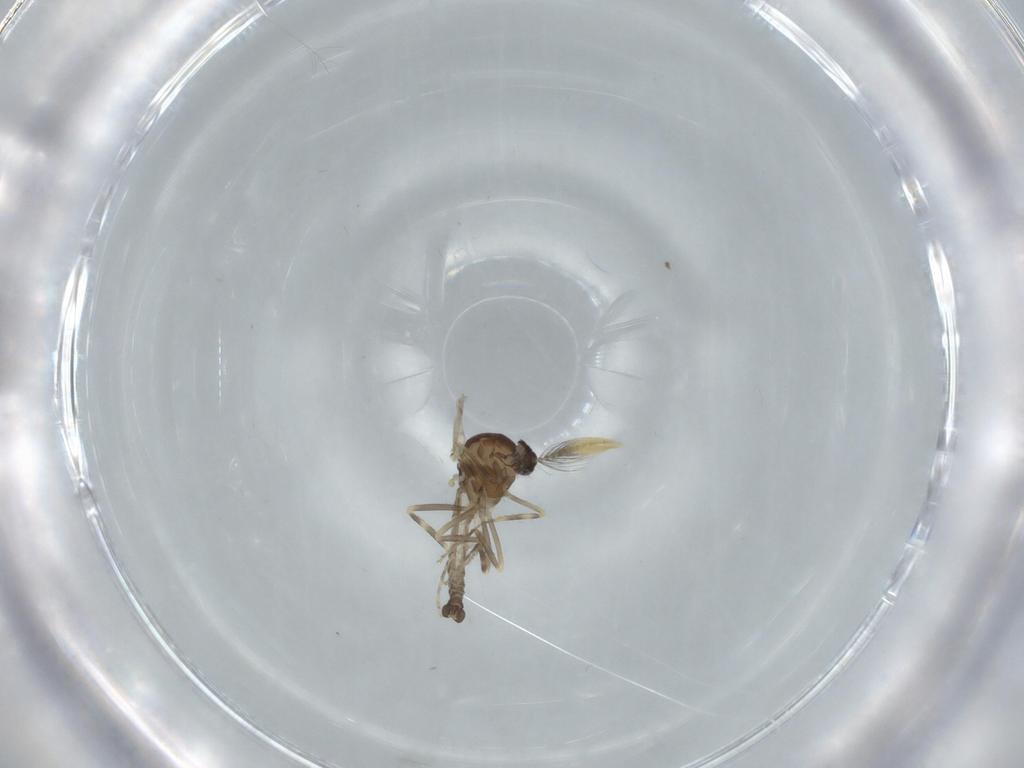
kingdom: Animalia
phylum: Arthropoda
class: Insecta
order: Diptera
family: Ceratopogonidae
